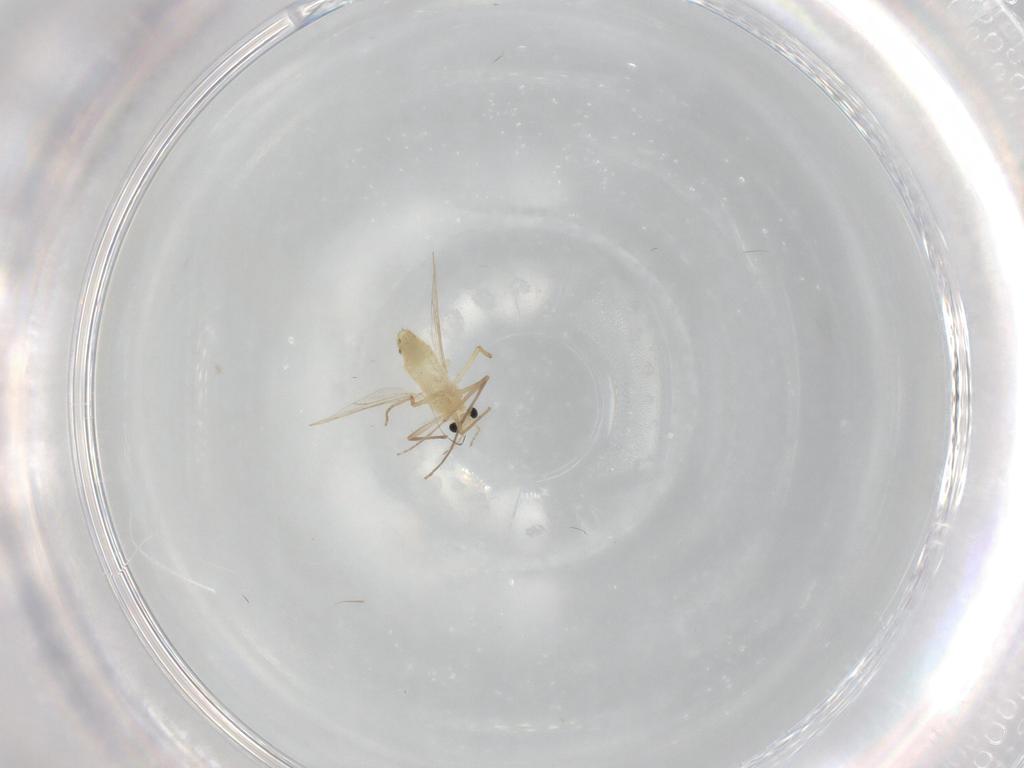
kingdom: Animalia
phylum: Arthropoda
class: Insecta
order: Diptera
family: Chironomidae
